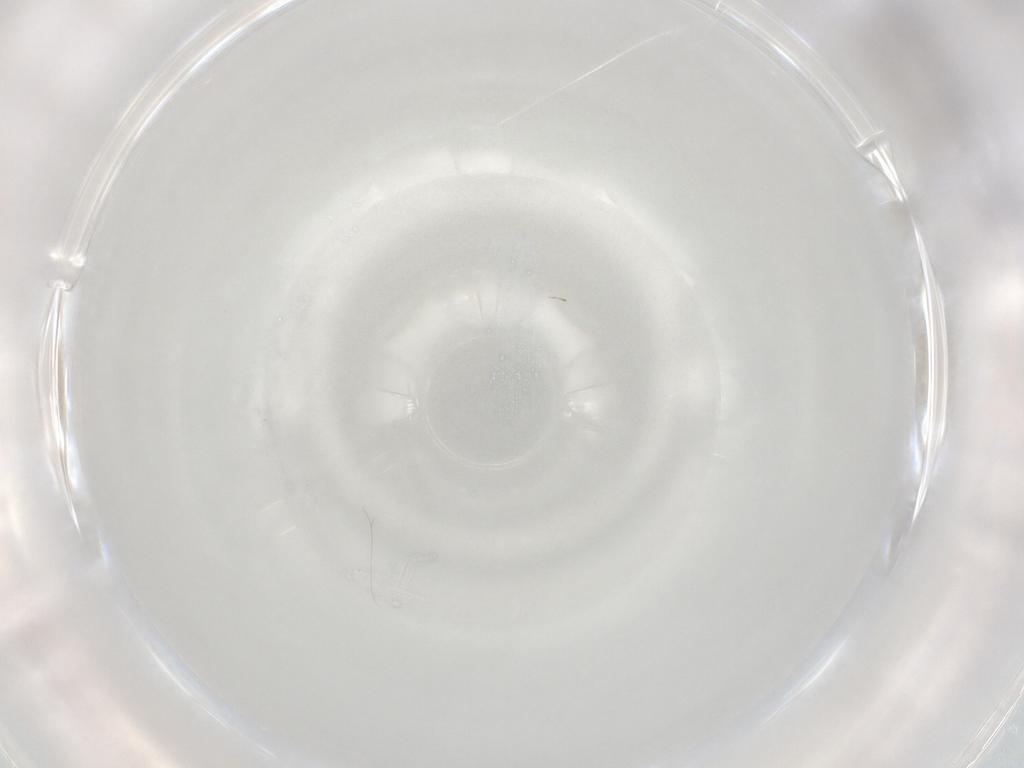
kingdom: Animalia
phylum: Arthropoda
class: Insecta
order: Diptera
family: Cecidomyiidae
